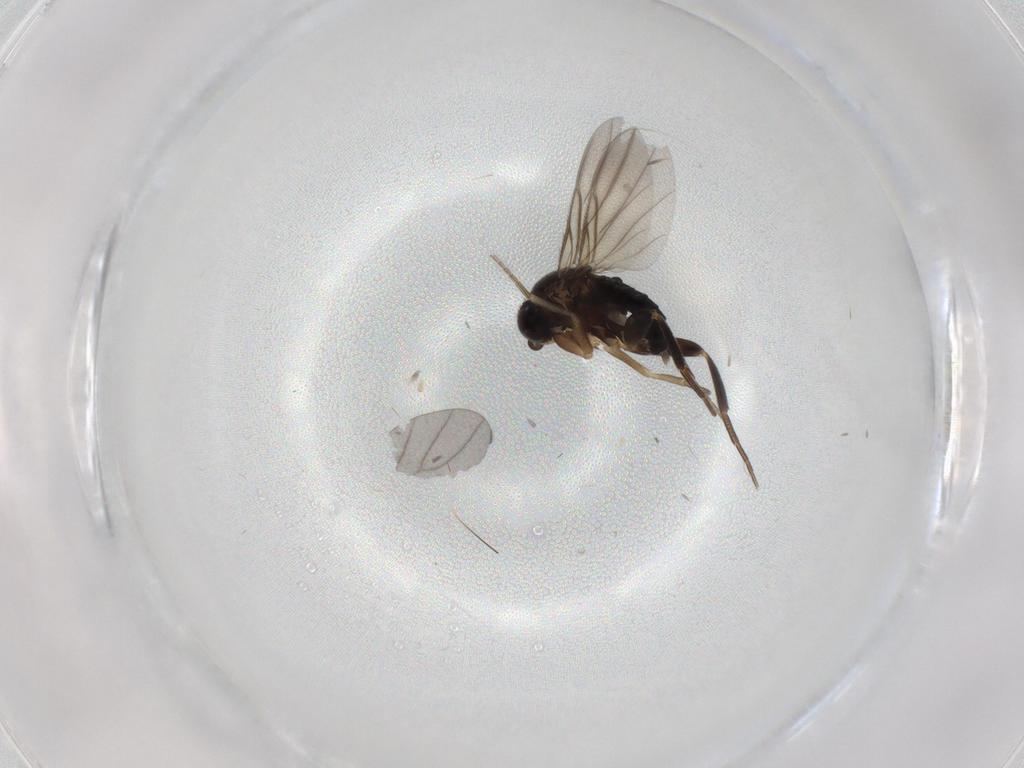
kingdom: Animalia
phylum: Arthropoda
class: Insecta
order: Diptera
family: Phoridae
